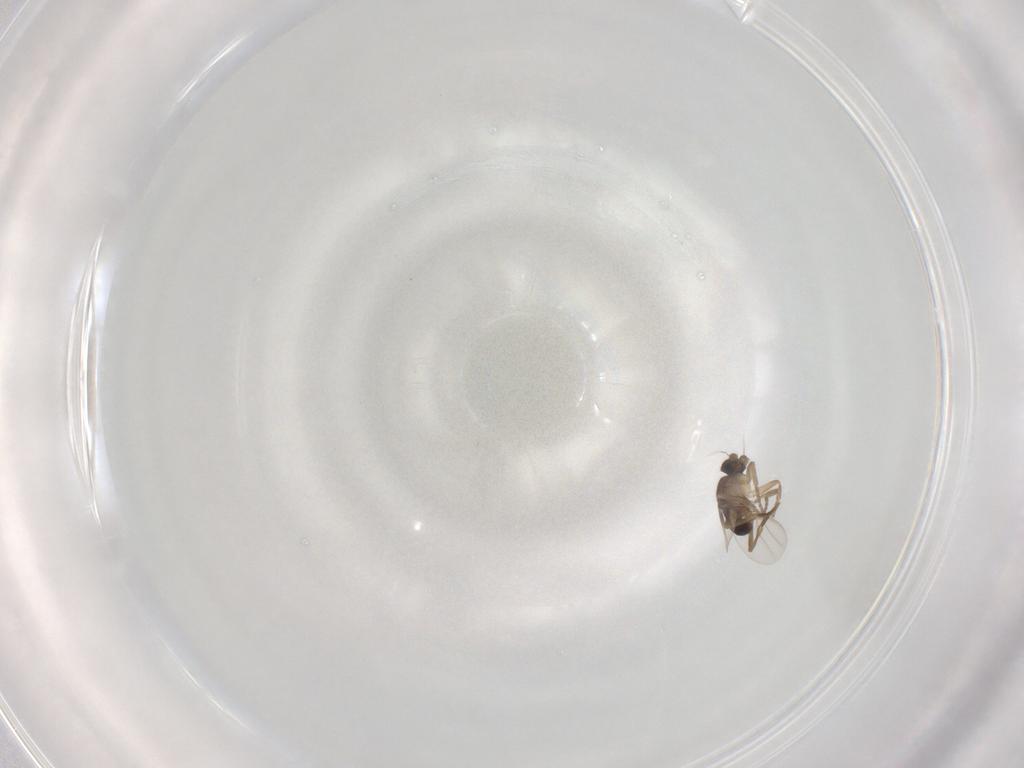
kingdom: Animalia
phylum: Arthropoda
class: Insecta
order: Diptera
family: Phoridae
